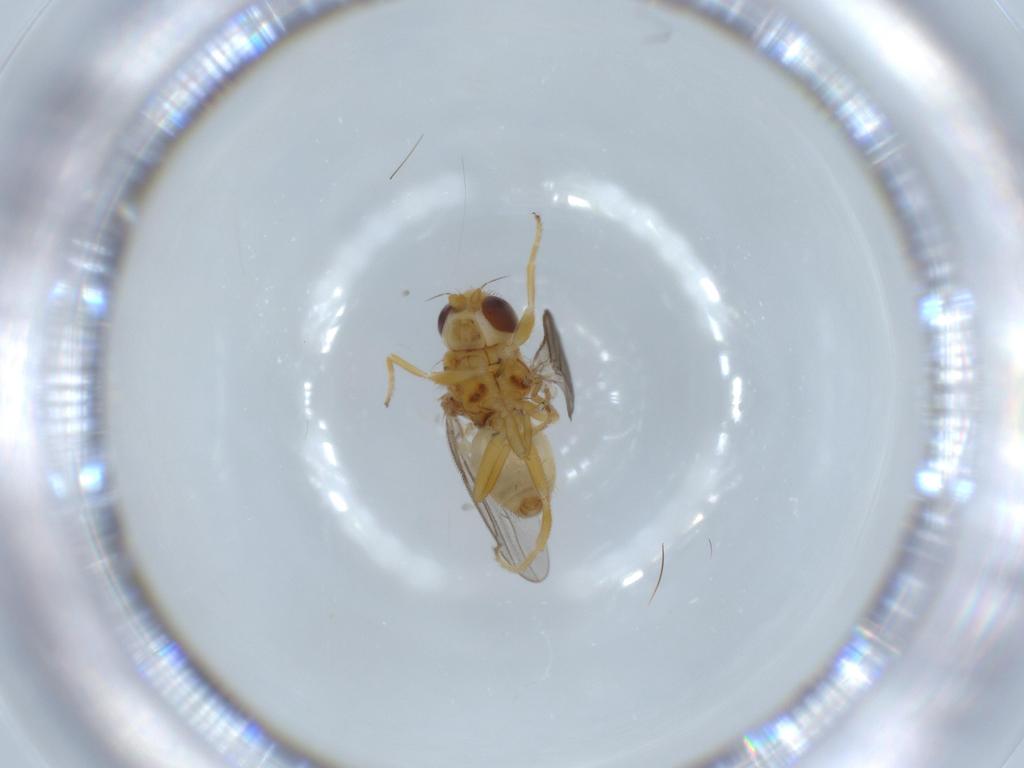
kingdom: Animalia
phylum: Arthropoda
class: Insecta
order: Diptera
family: Chloropidae
